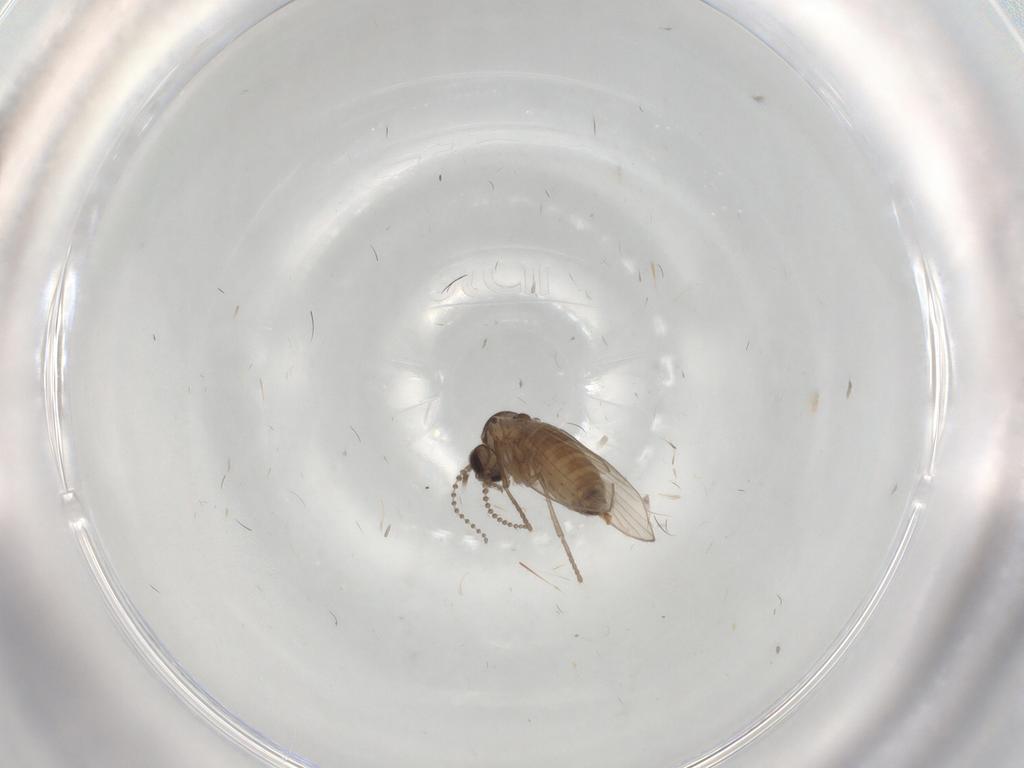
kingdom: Animalia
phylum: Arthropoda
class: Insecta
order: Diptera
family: Psychodidae
